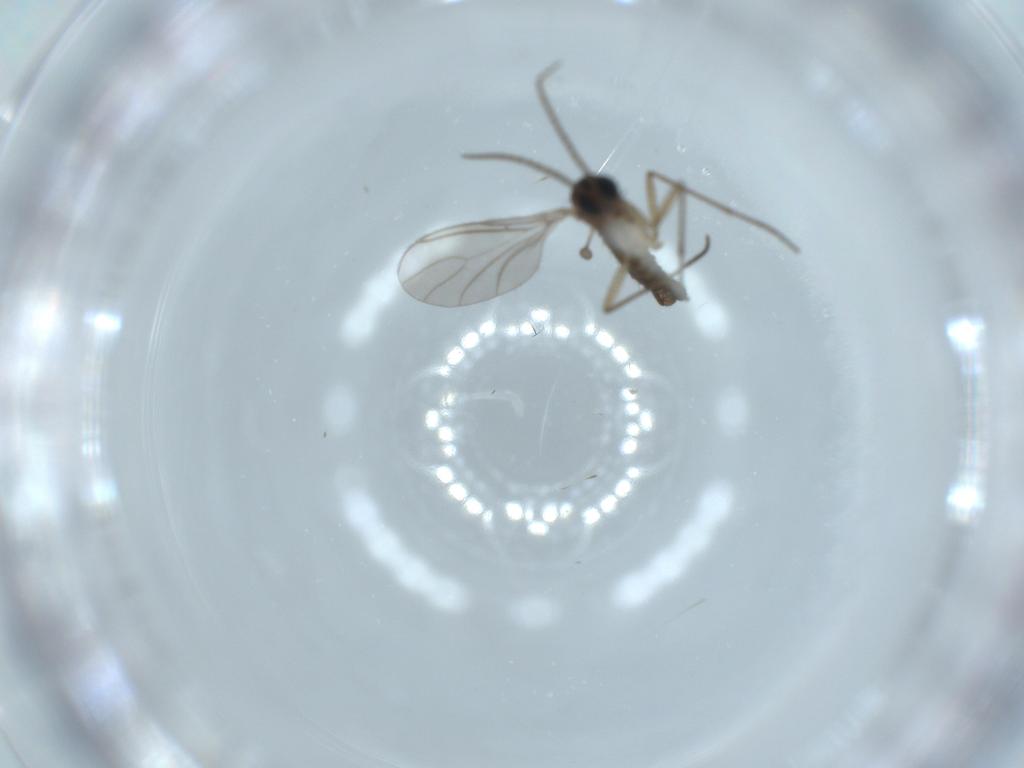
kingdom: Animalia
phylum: Arthropoda
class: Insecta
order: Diptera
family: Sciaridae
